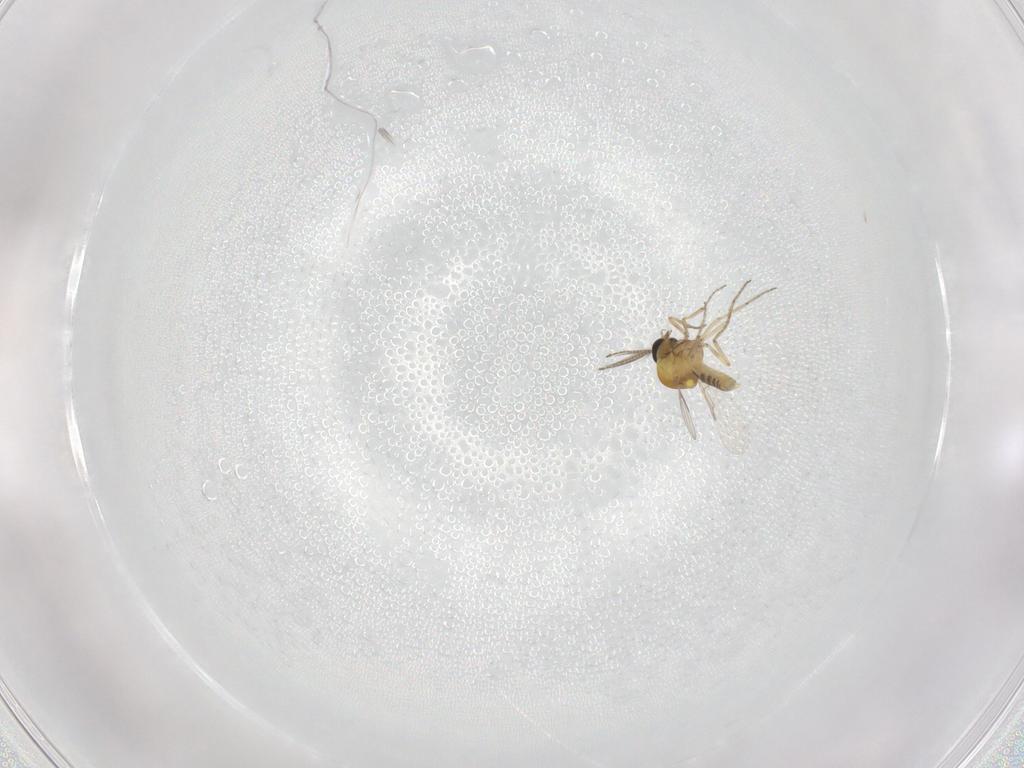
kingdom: Animalia
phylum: Arthropoda
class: Insecta
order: Diptera
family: Ceratopogonidae
